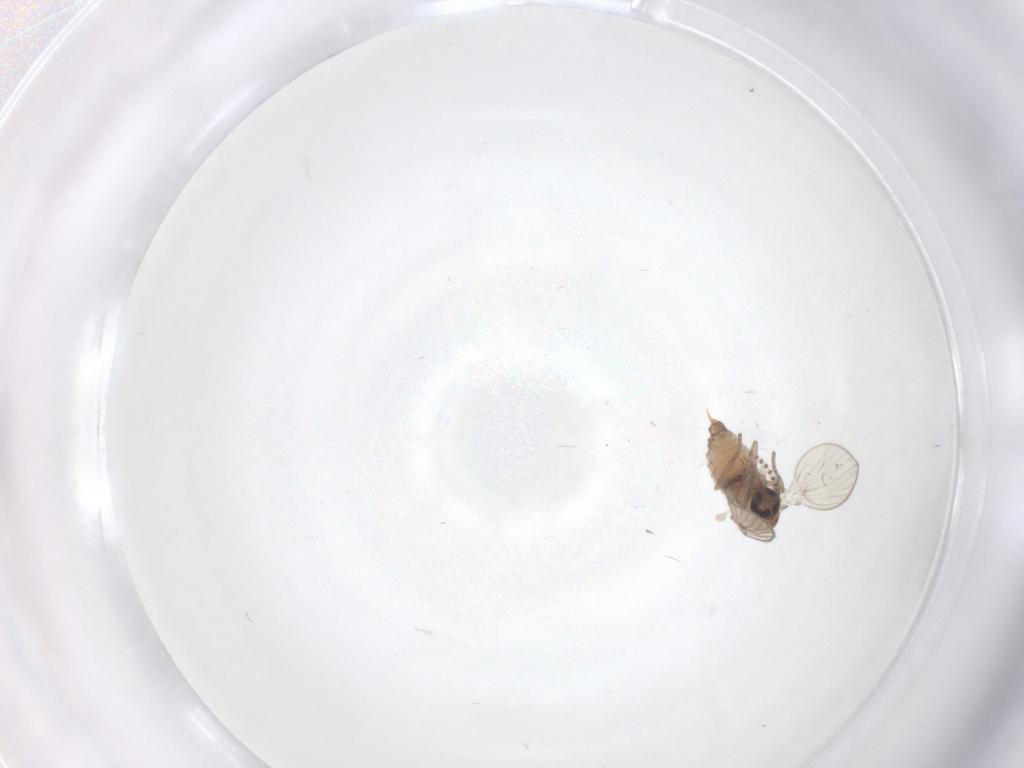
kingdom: Animalia
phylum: Arthropoda
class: Insecta
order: Diptera
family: Psychodidae
